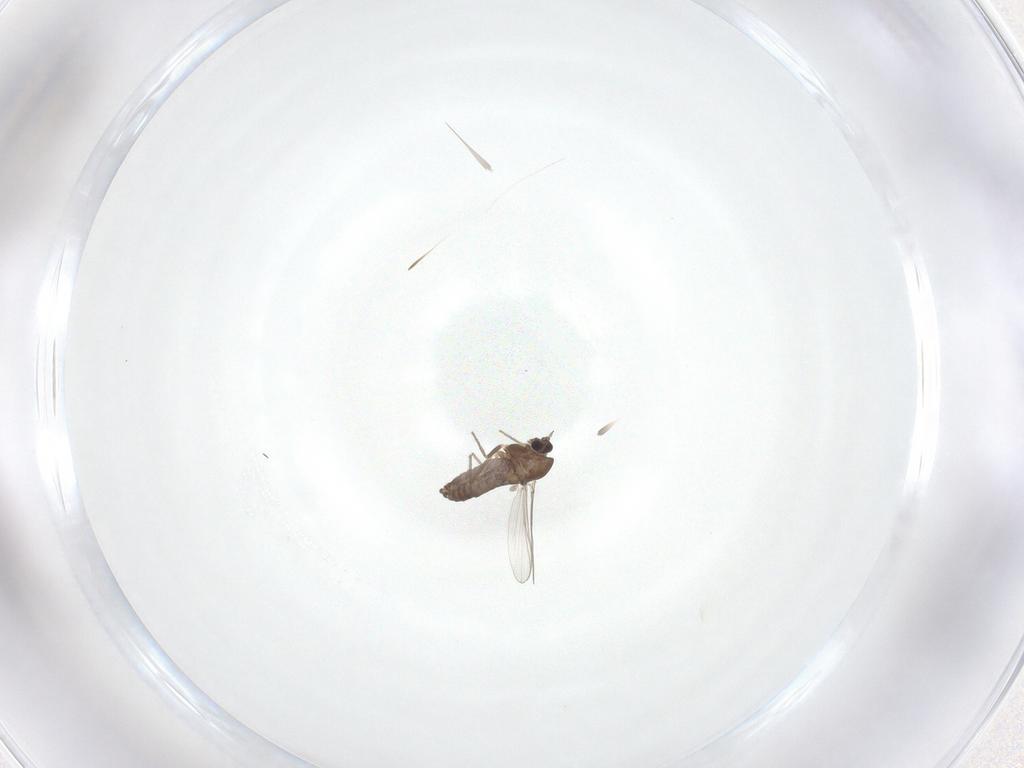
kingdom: Animalia
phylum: Arthropoda
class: Insecta
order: Diptera
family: Chironomidae
